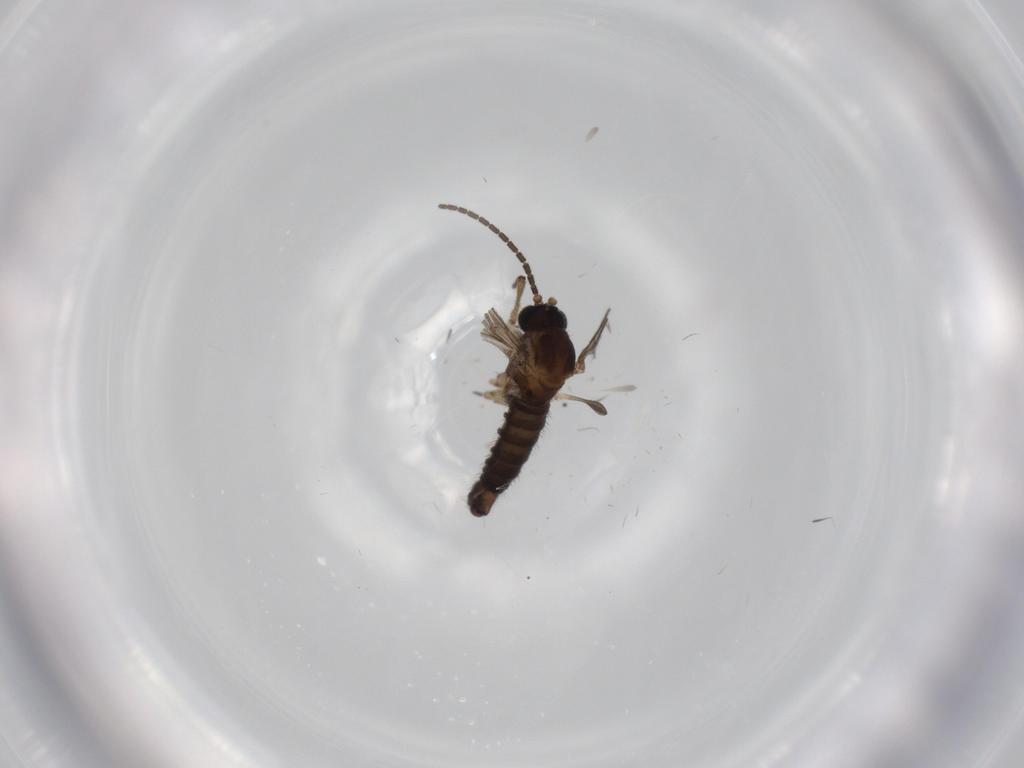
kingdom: Animalia
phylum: Arthropoda
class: Insecta
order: Diptera
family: Sciaridae
